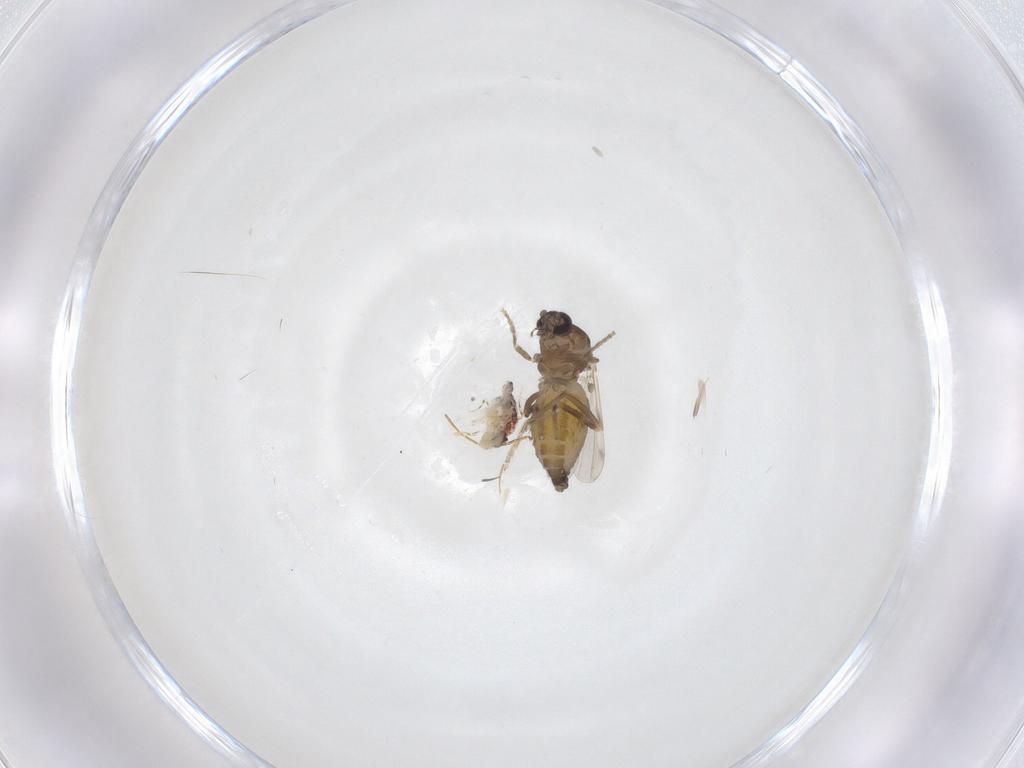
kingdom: Animalia
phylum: Arthropoda
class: Insecta
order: Diptera
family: Ceratopogonidae
